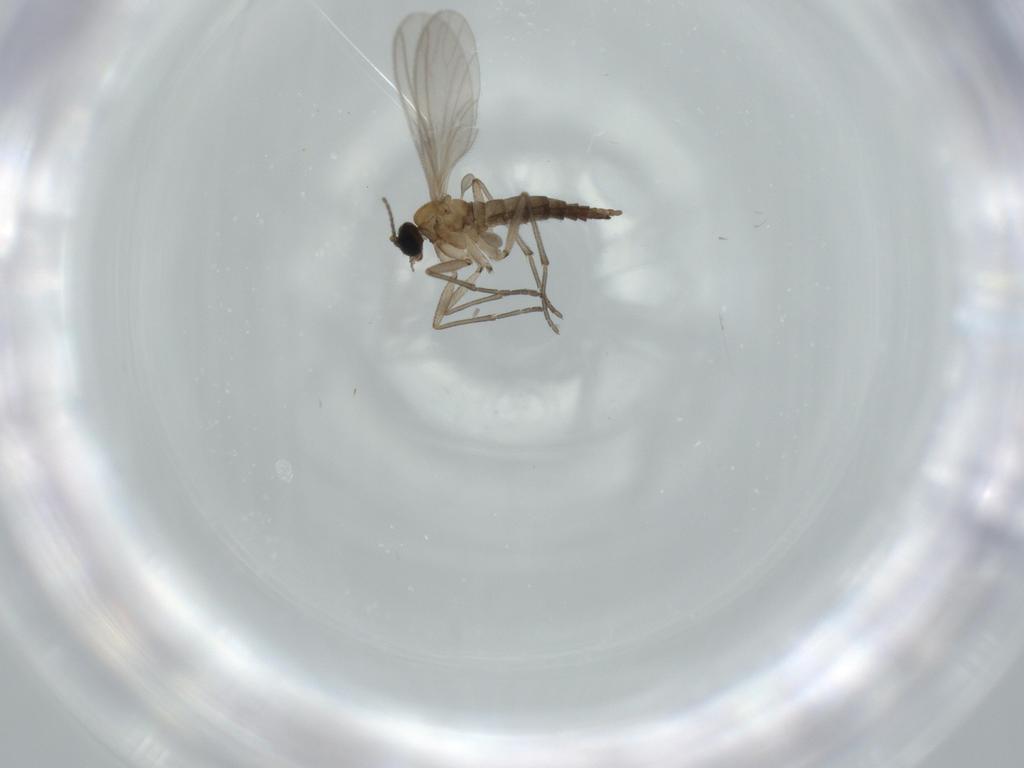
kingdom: Animalia
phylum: Arthropoda
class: Insecta
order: Diptera
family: Sciaridae
